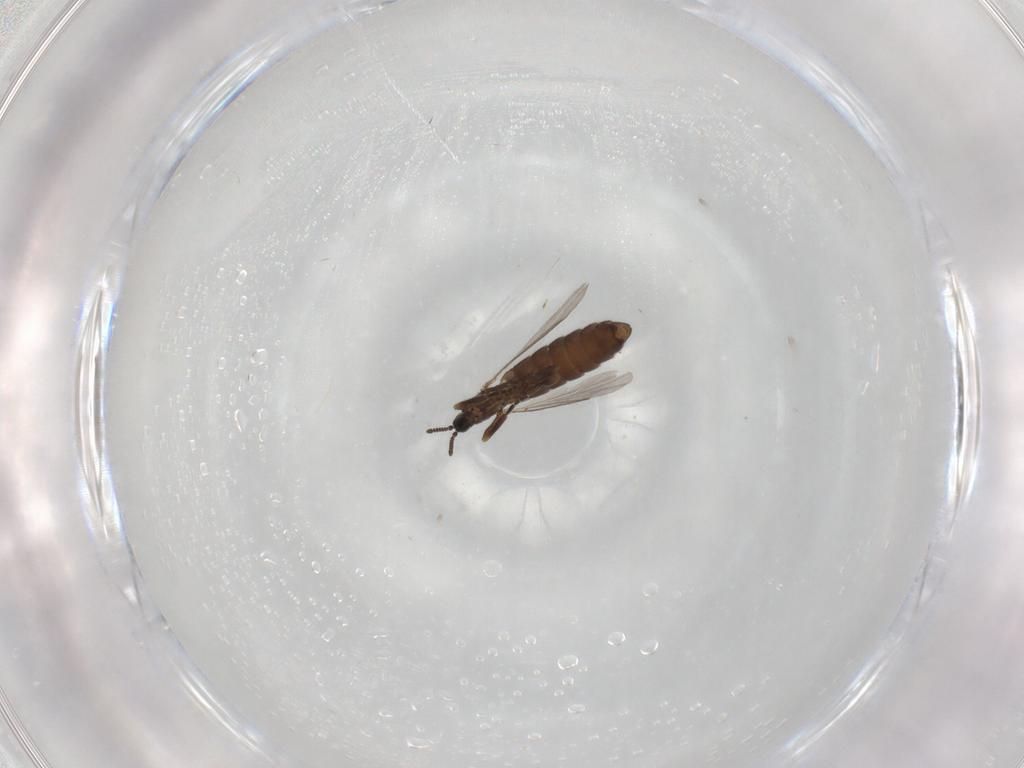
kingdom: Animalia
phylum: Arthropoda
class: Insecta
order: Diptera
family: Scatopsidae
